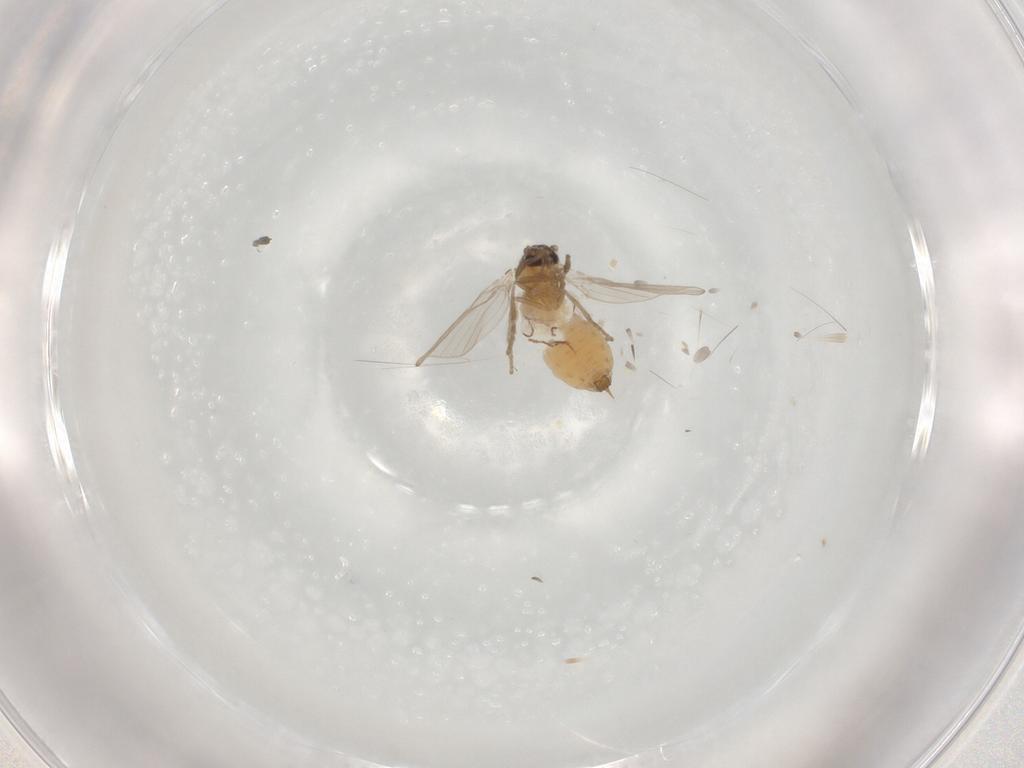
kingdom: Animalia
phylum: Arthropoda
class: Insecta
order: Diptera
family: Psychodidae
